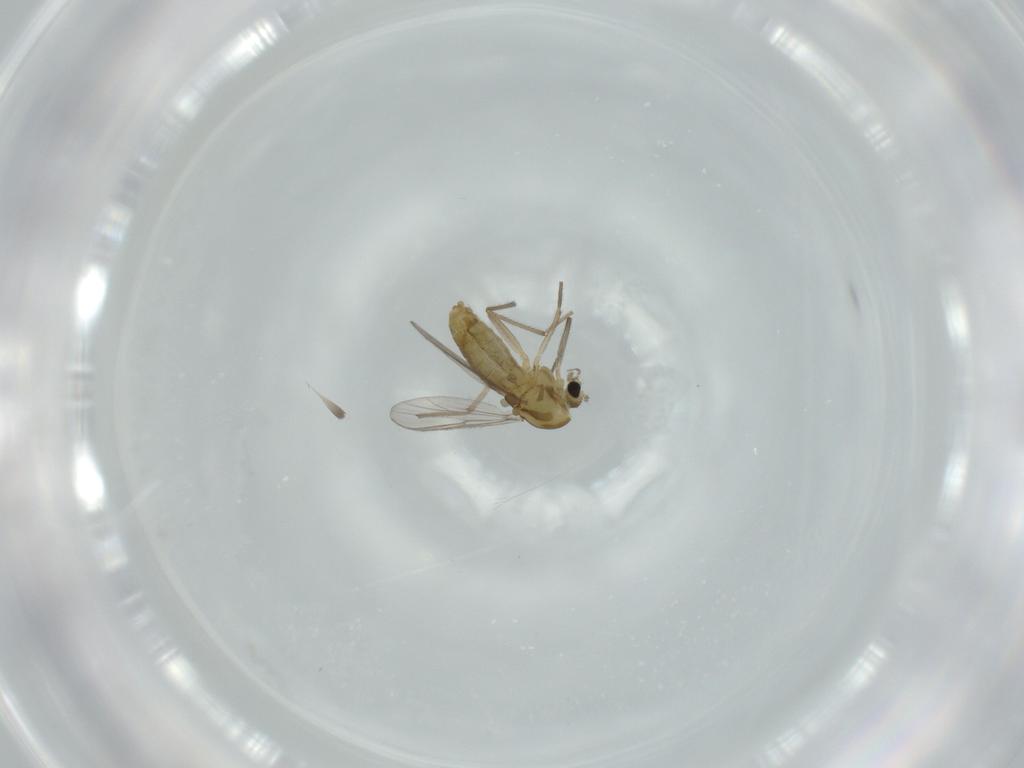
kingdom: Animalia
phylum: Arthropoda
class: Insecta
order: Diptera
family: Chironomidae
